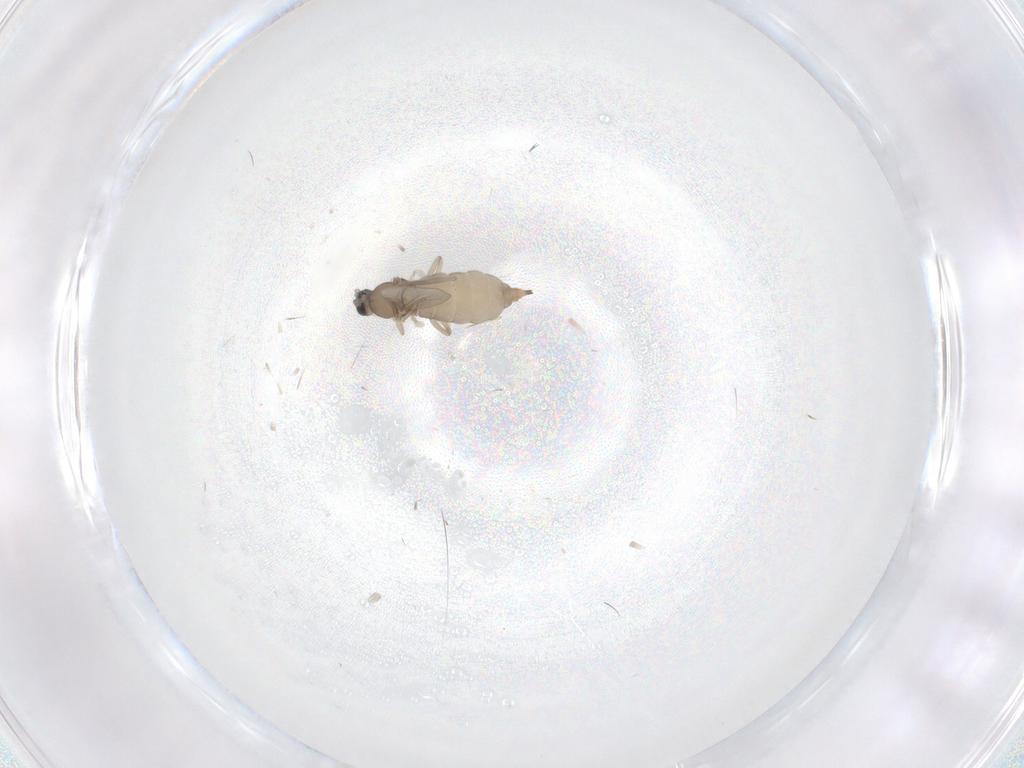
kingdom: Animalia
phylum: Arthropoda
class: Insecta
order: Diptera
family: Cecidomyiidae
